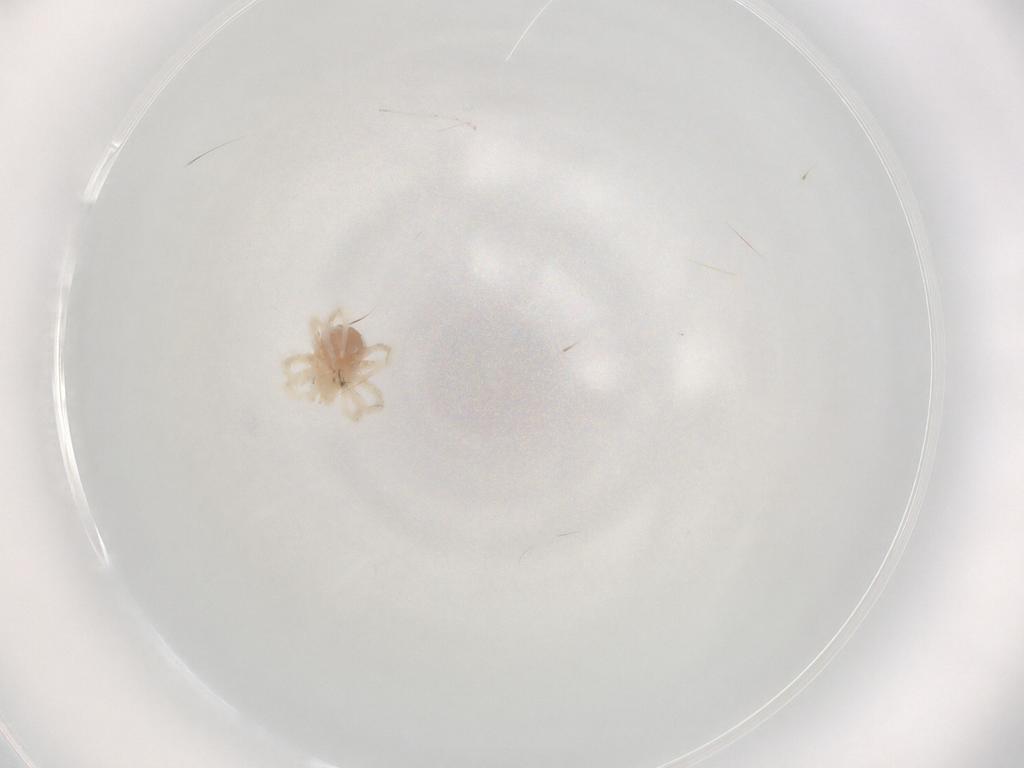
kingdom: Animalia
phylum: Arthropoda
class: Arachnida
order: Trombidiformes
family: Anystidae
